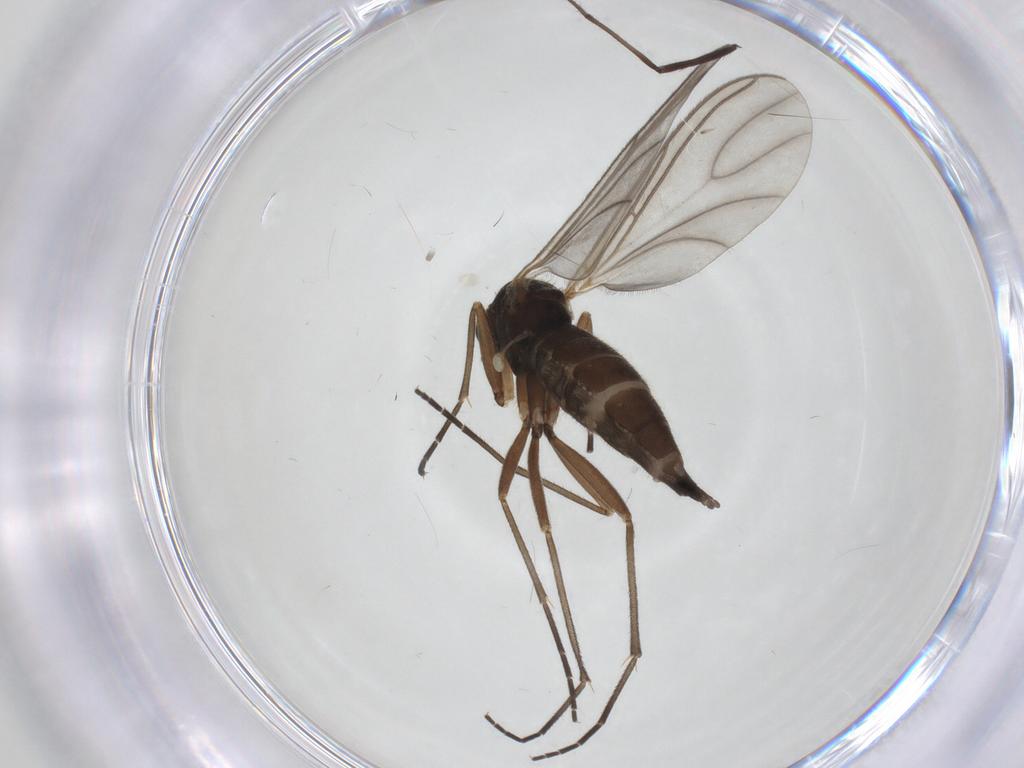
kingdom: Animalia
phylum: Arthropoda
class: Insecta
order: Diptera
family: Sciaridae
